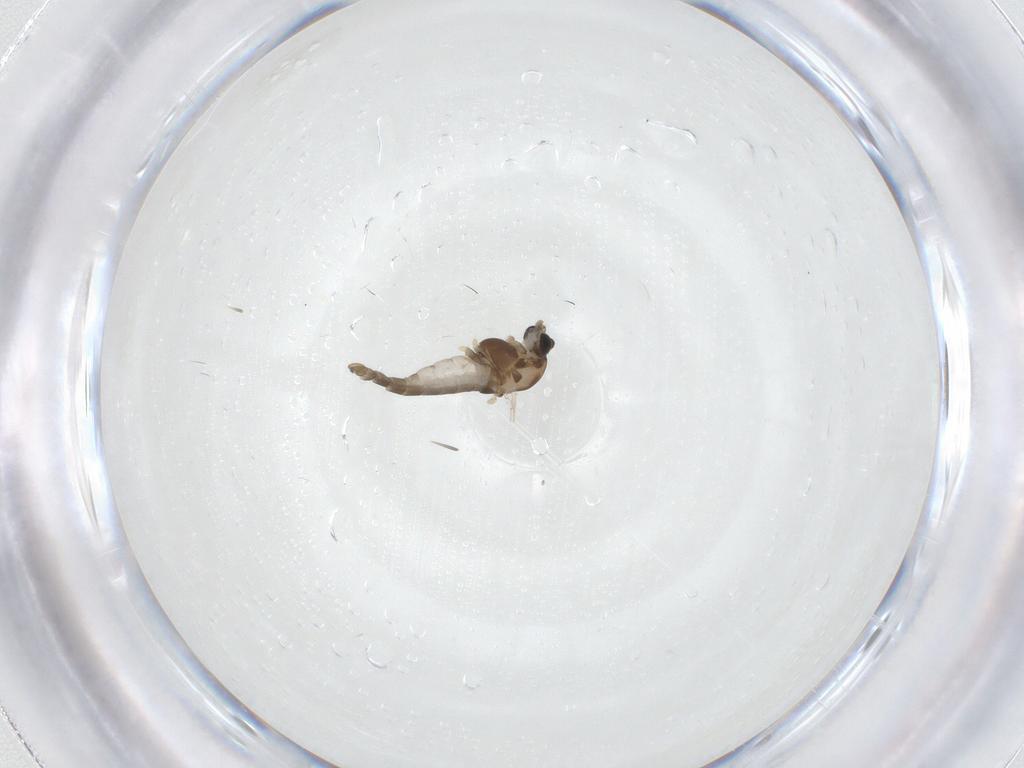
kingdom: Animalia
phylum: Arthropoda
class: Insecta
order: Diptera
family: Chironomidae
